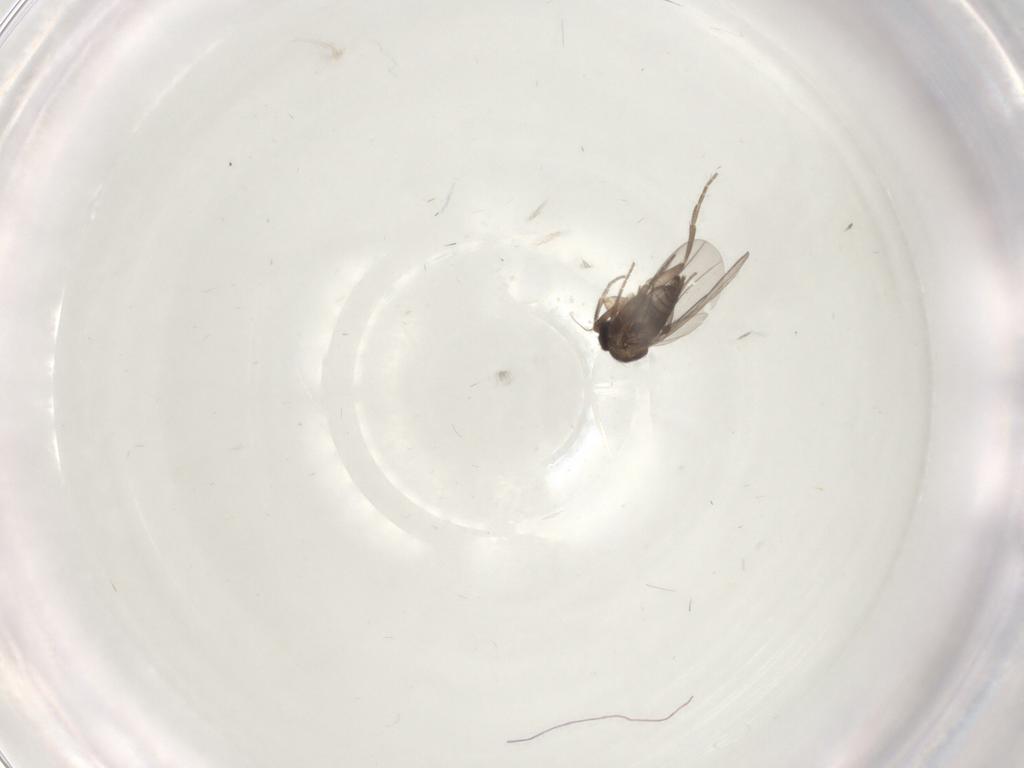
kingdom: Animalia
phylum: Arthropoda
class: Insecta
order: Diptera
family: Phoridae
